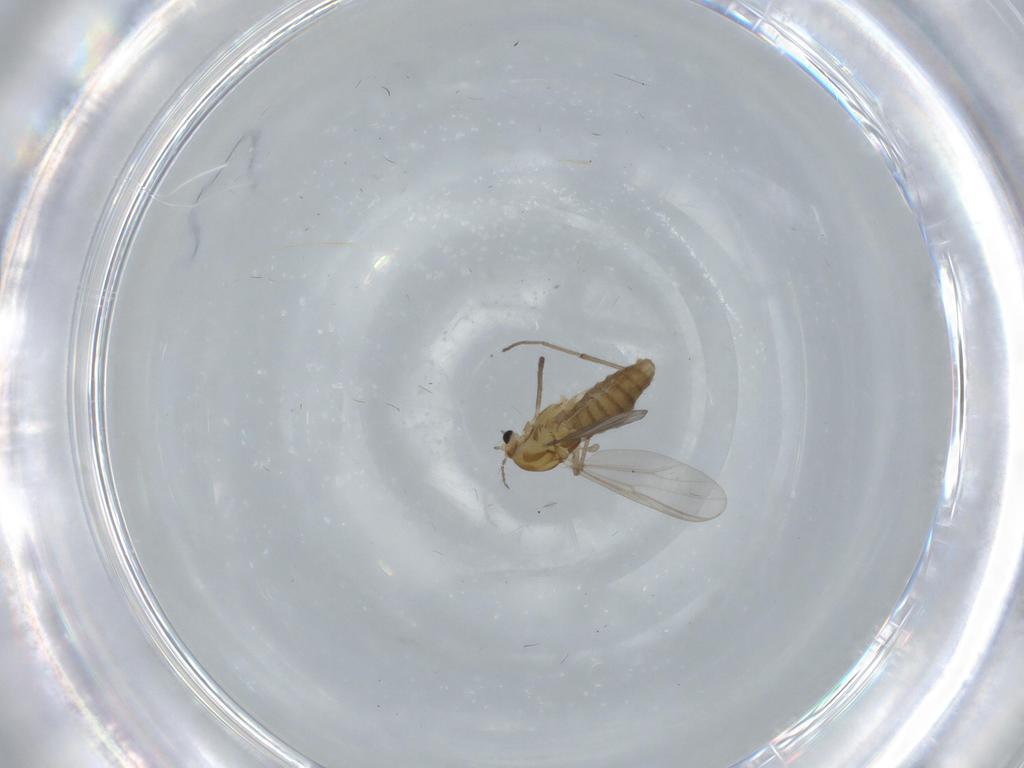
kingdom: Animalia
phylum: Arthropoda
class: Insecta
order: Diptera
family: Chironomidae
